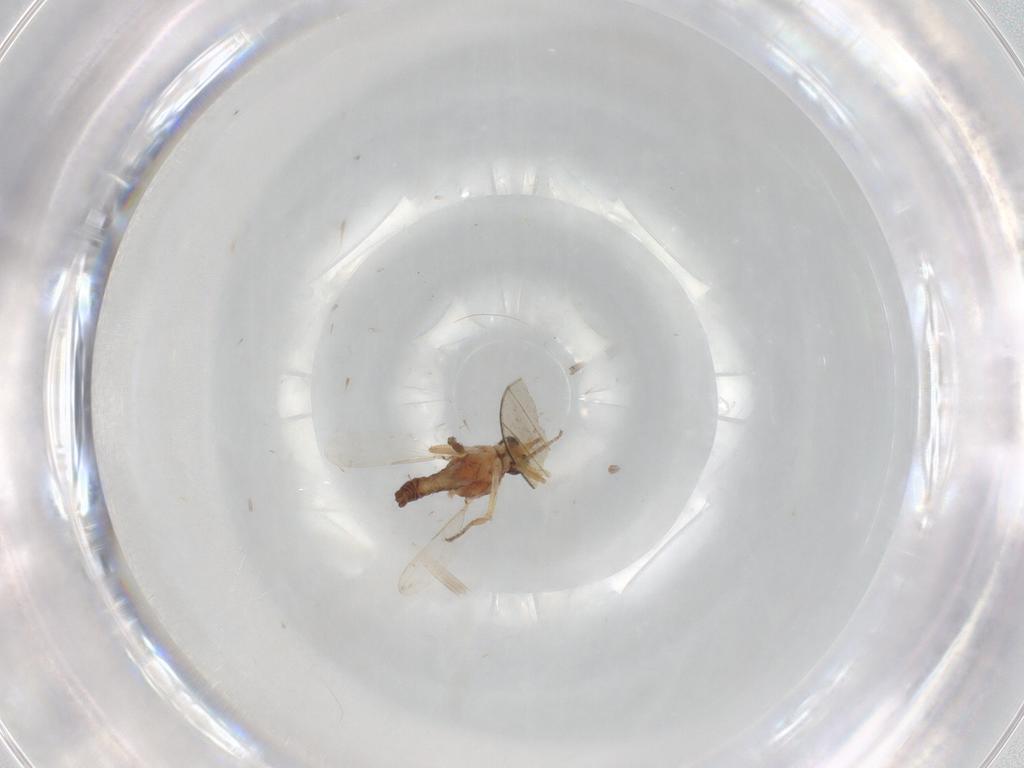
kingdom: Animalia
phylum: Arthropoda
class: Insecta
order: Diptera
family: Ceratopogonidae
